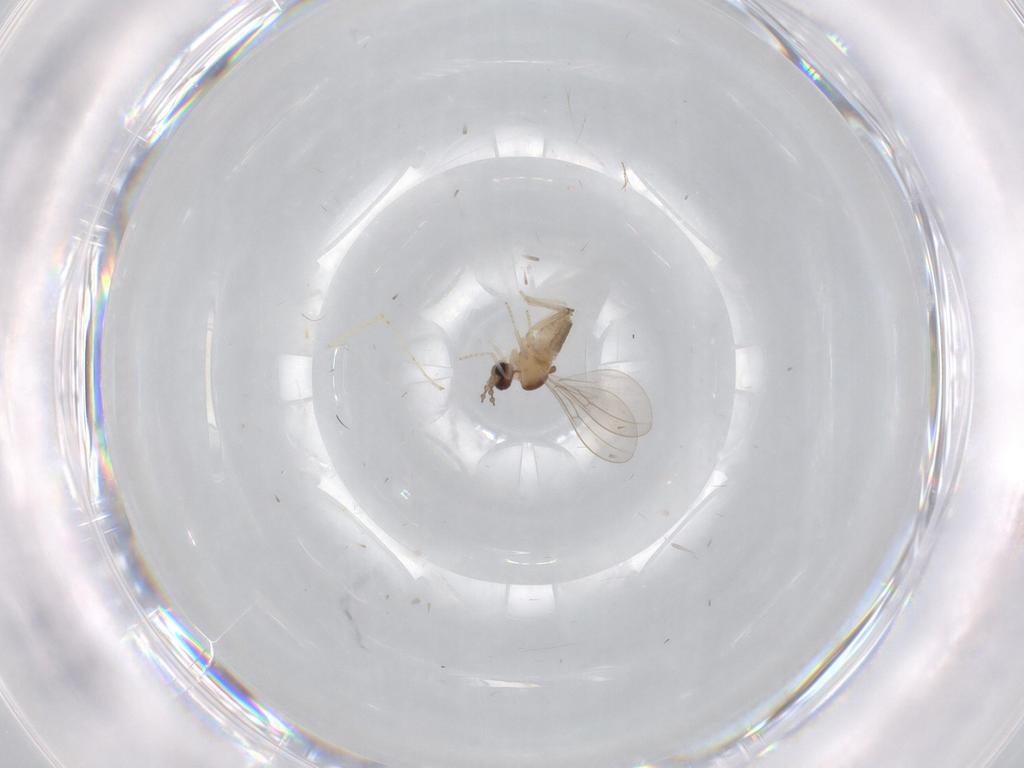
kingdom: Animalia
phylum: Arthropoda
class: Insecta
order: Diptera
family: Cecidomyiidae
